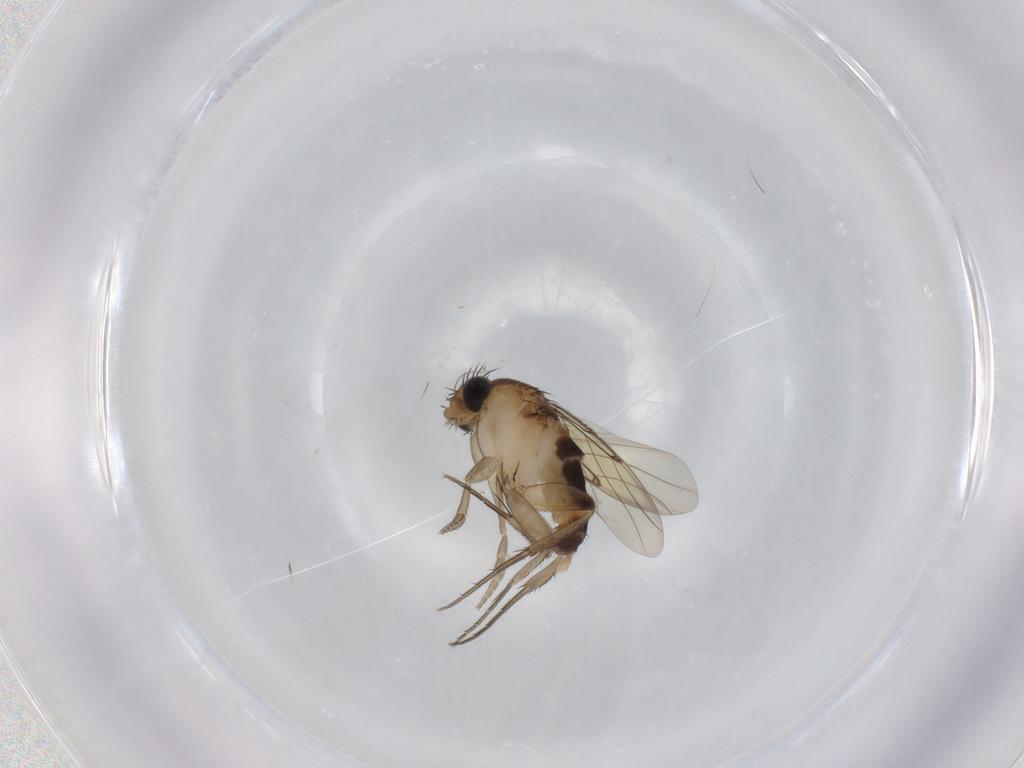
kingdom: Animalia
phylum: Arthropoda
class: Insecta
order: Diptera
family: Phoridae
